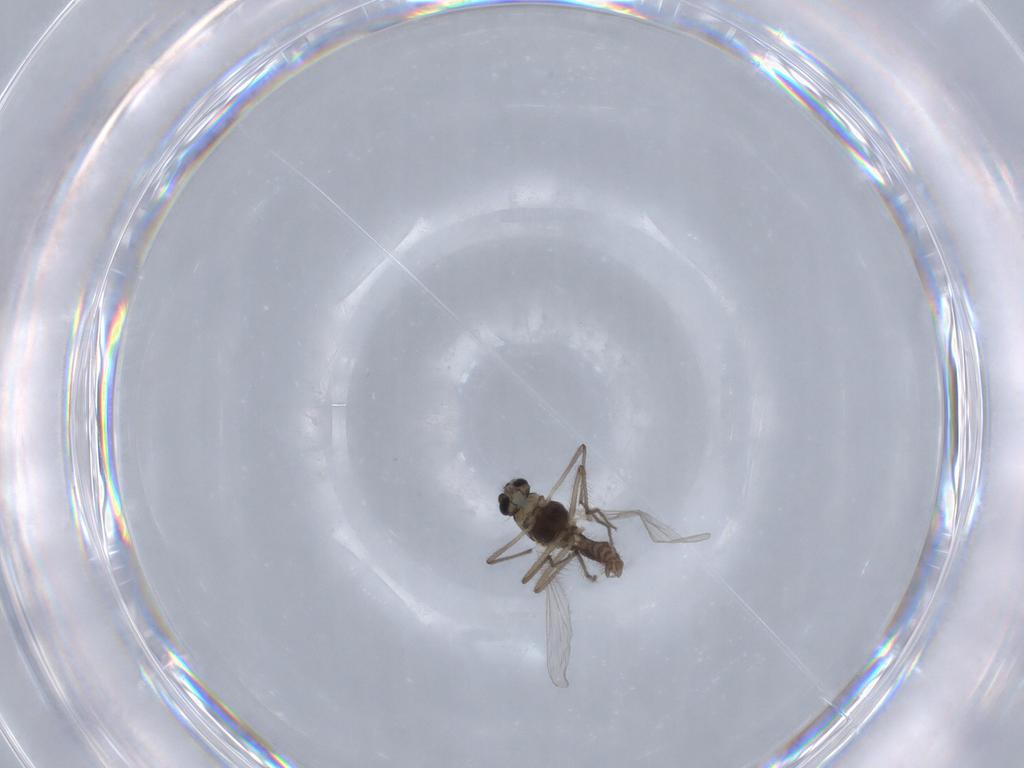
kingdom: Animalia
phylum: Arthropoda
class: Insecta
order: Diptera
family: Chironomidae
